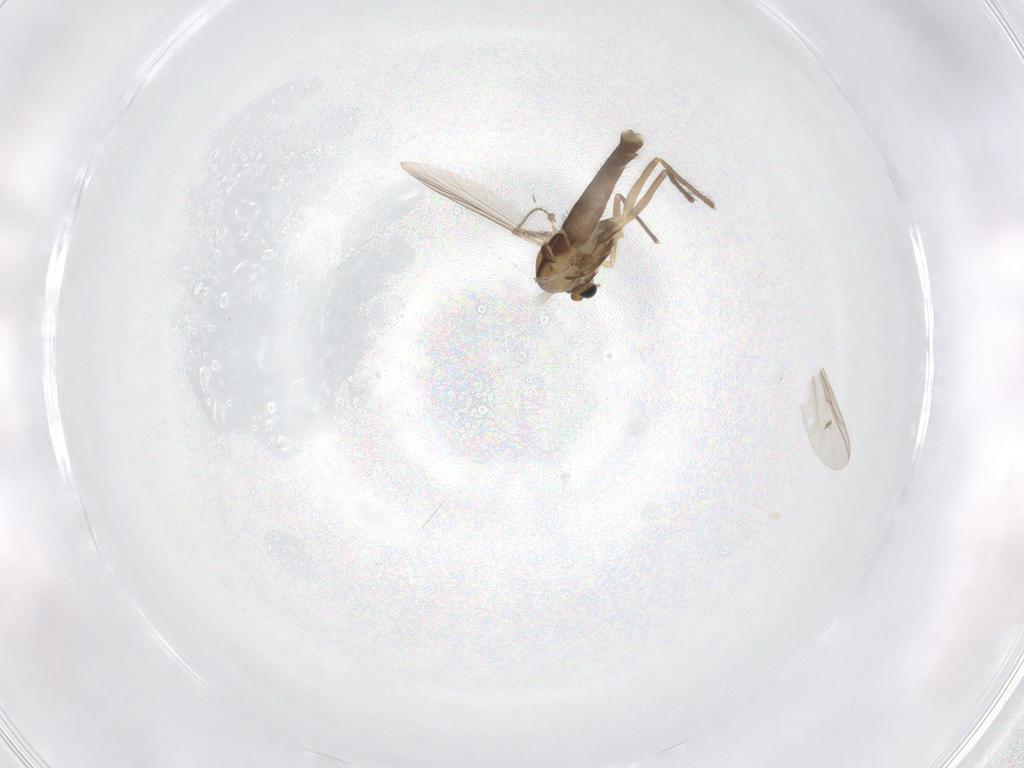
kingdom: Animalia
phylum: Arthropoda
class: Insecta
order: Diptera
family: Chironomidae
